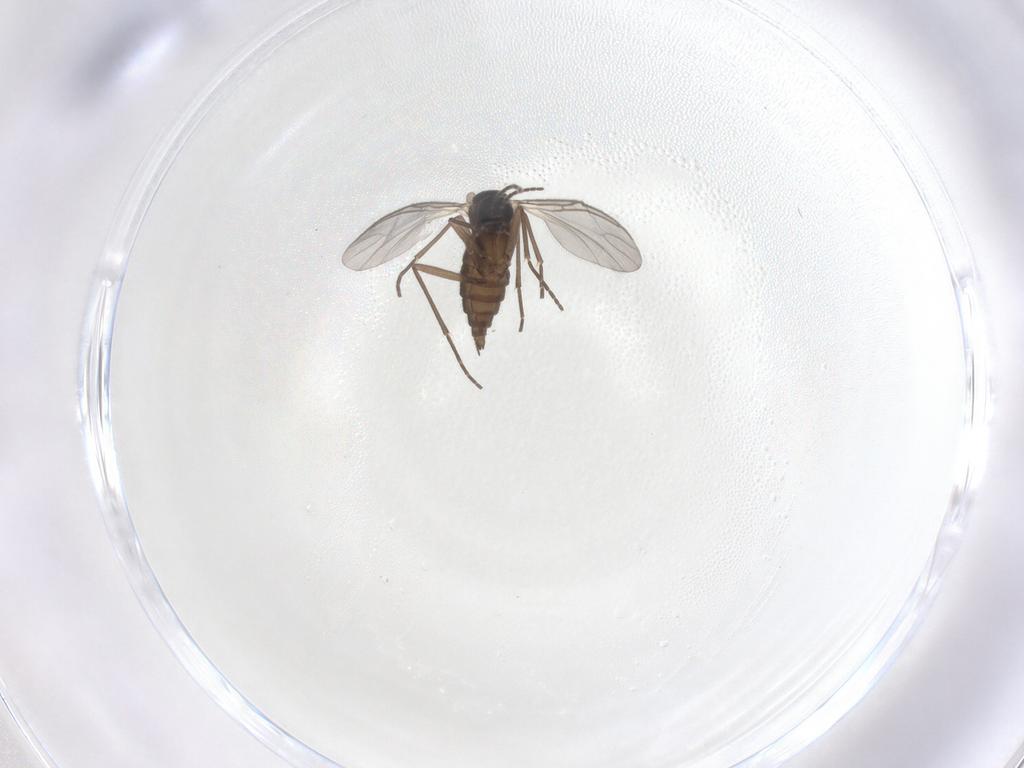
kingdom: Animalia
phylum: Arthropoda
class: Insecta
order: Diptera
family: Sciaridae
